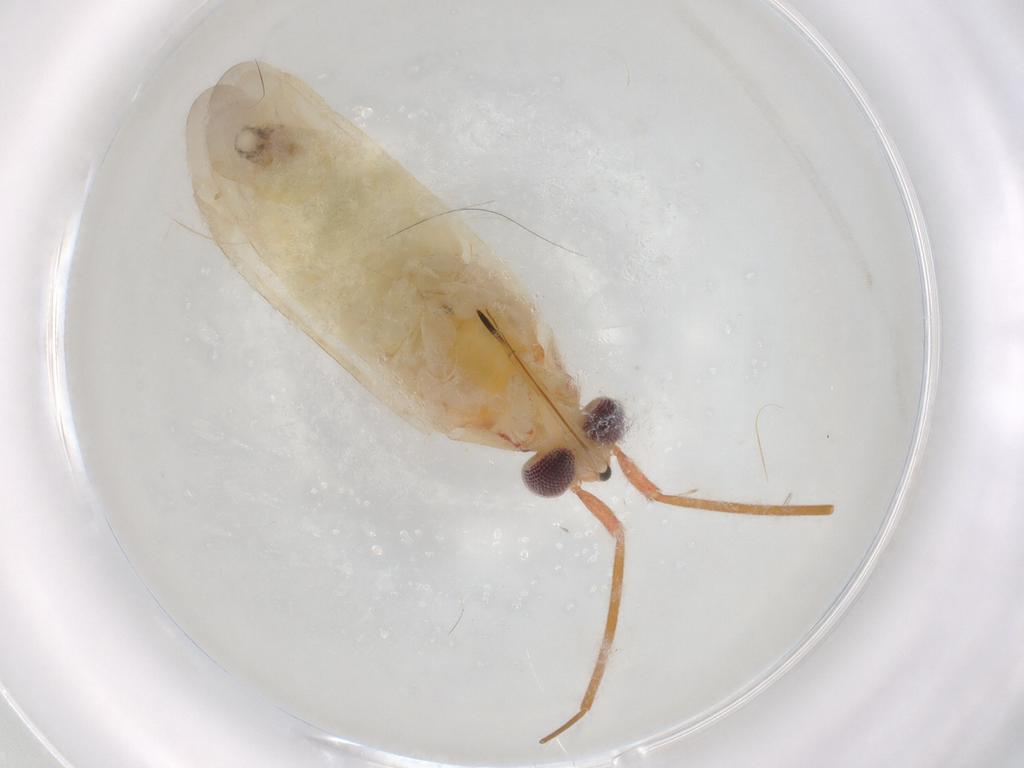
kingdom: Animalia
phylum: Arthropoda
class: Insecta
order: Hemiptera
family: Miridae
